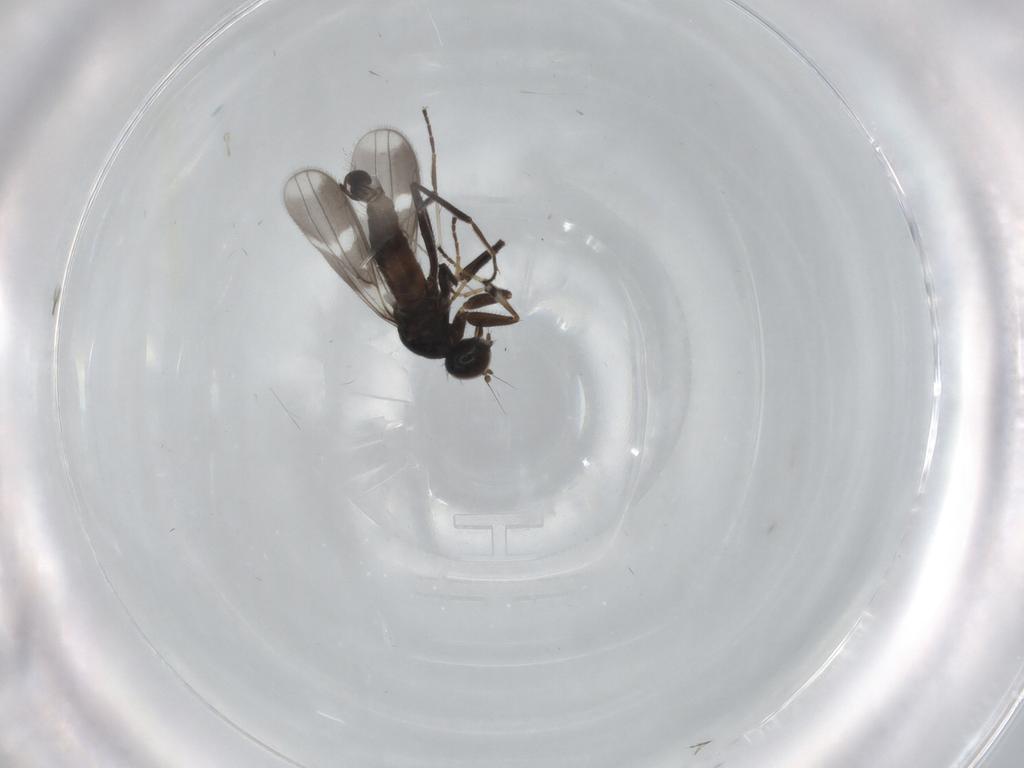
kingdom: Animalia
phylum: Arthropoda
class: Insecta
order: Diptera
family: Hybotidae
